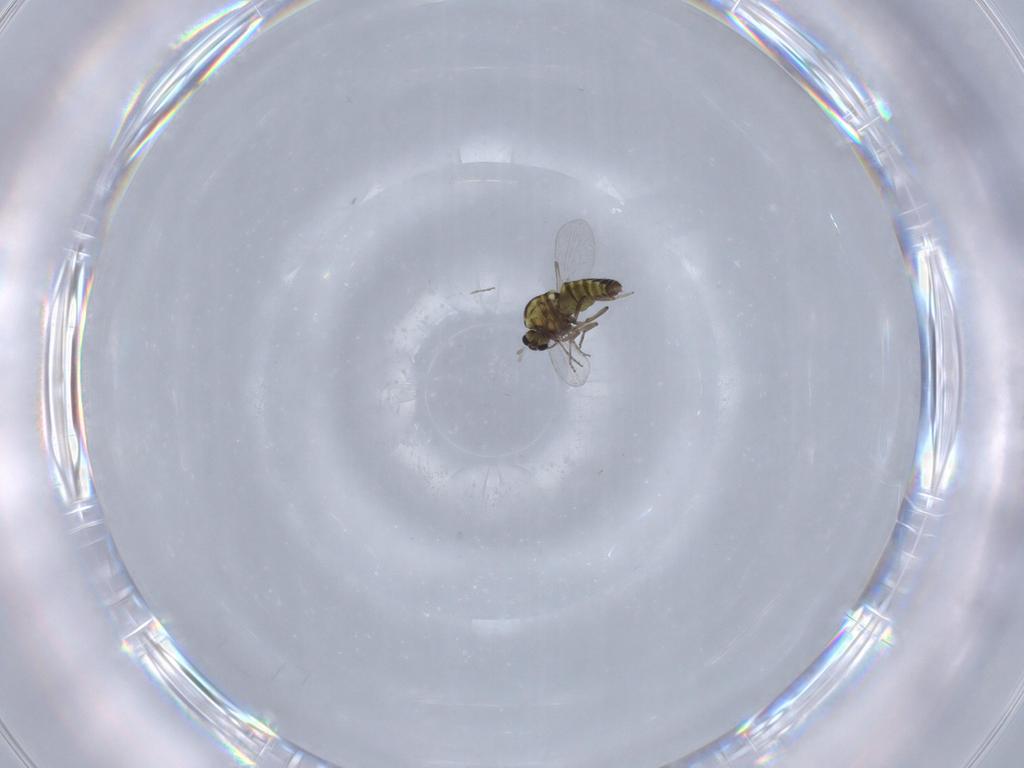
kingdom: Animalia
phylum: Arthropoda
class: Insecta
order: Diptera
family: Ceratopogonidae
